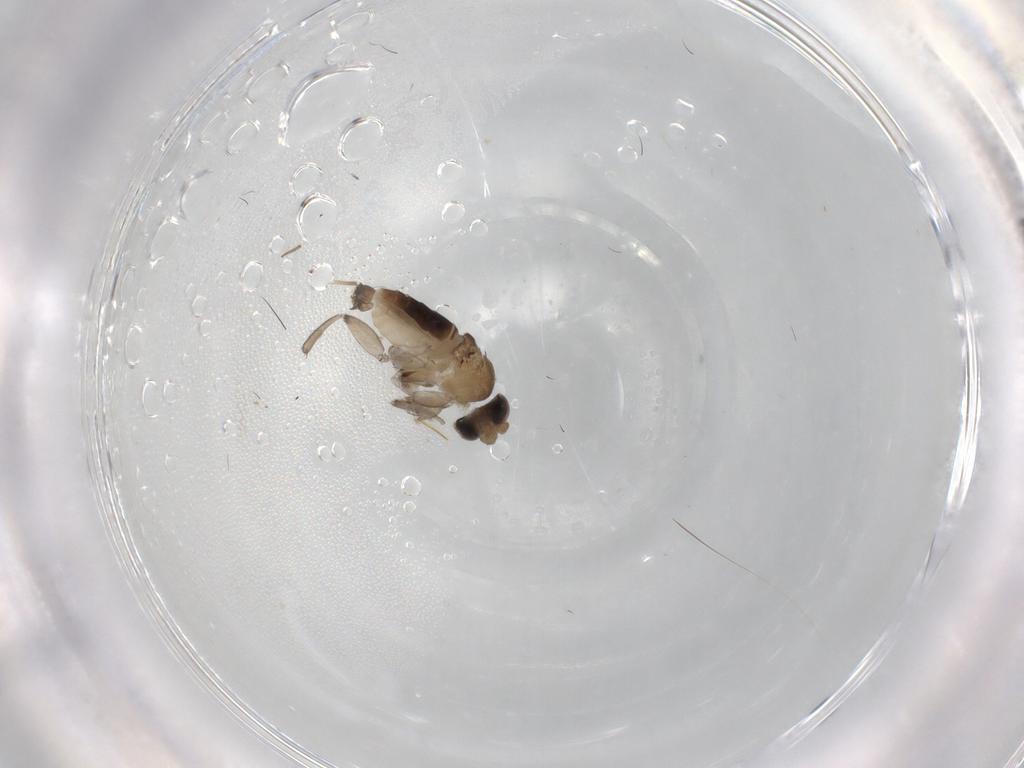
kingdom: Animalia
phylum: Arthropoda
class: Insecta
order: Diptera
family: Cecidomyiidae
